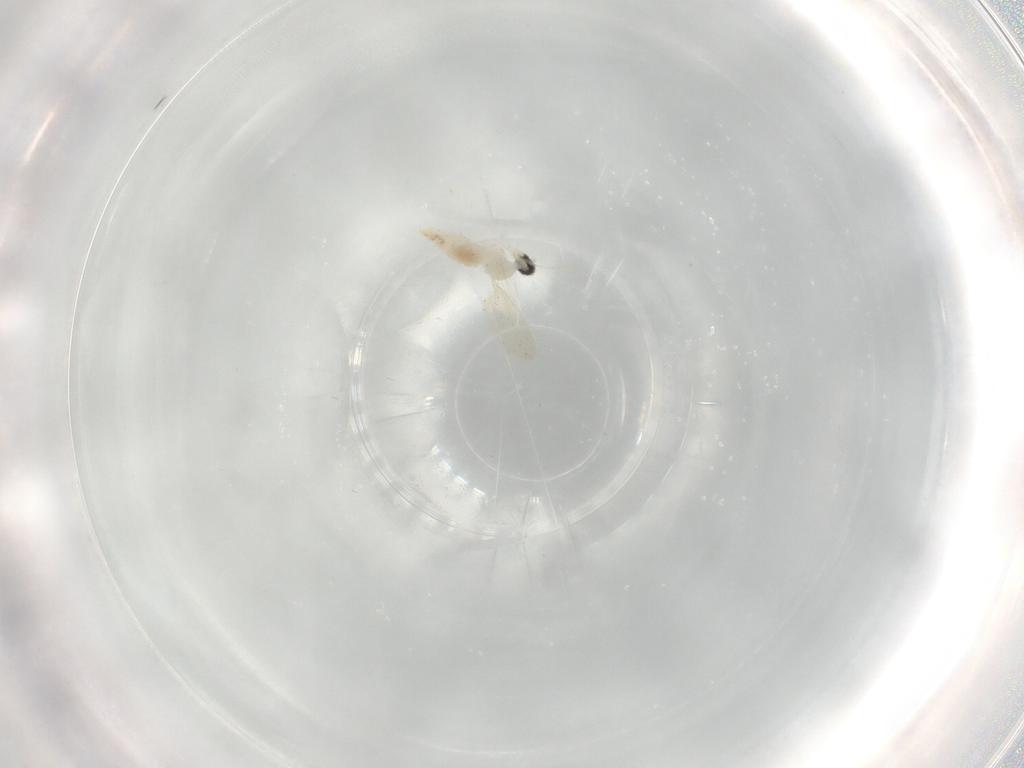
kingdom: Animalia
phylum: Arthropoda
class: Insecta
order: Diptera
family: Cecidomyiidae
